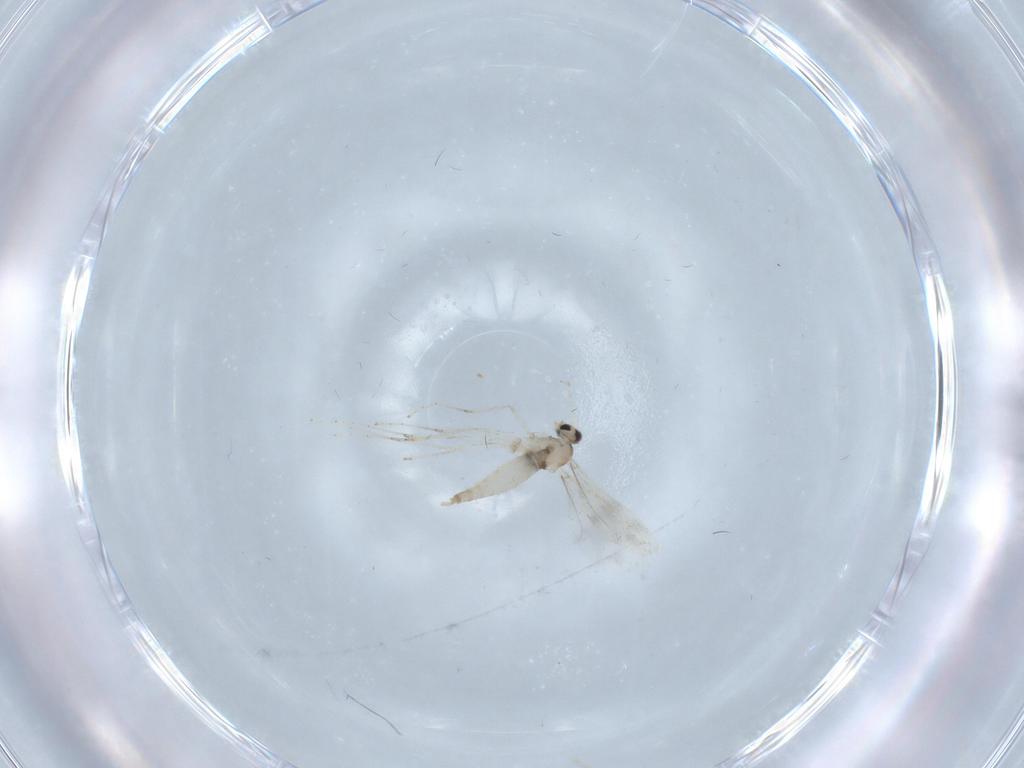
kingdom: Animalia
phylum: Arthropoda
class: Insecta
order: Diptera
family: Cecidomyiidae
